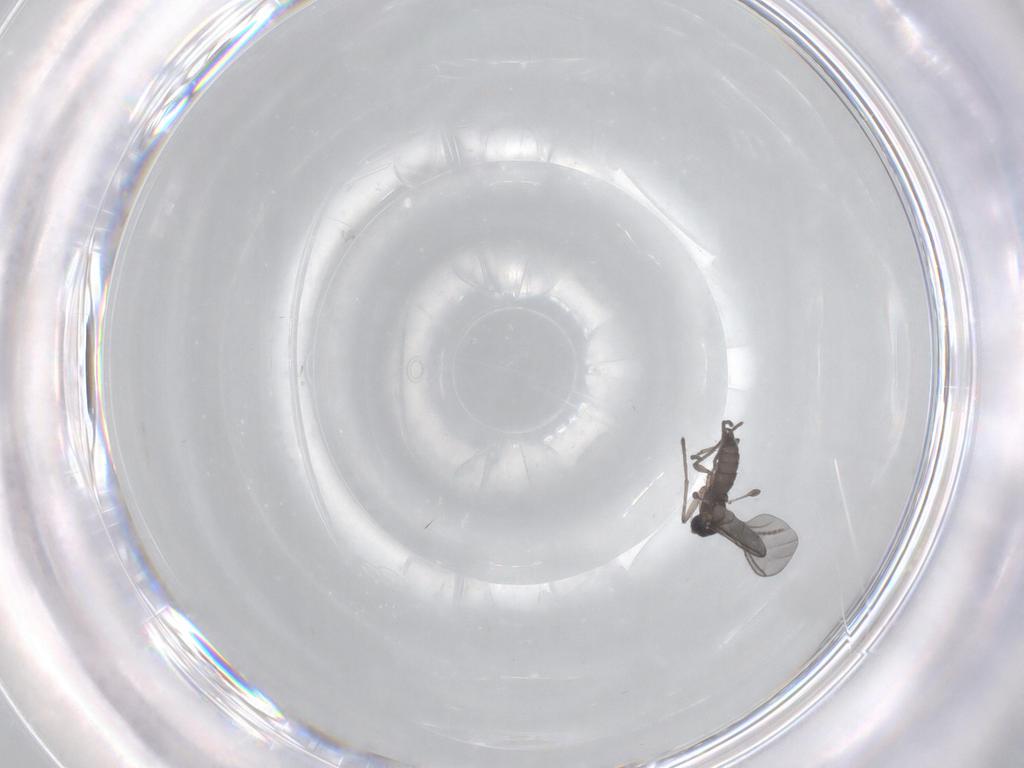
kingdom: Animalia
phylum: Arthropoda
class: Insecta
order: Diptera
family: Sciaridae
